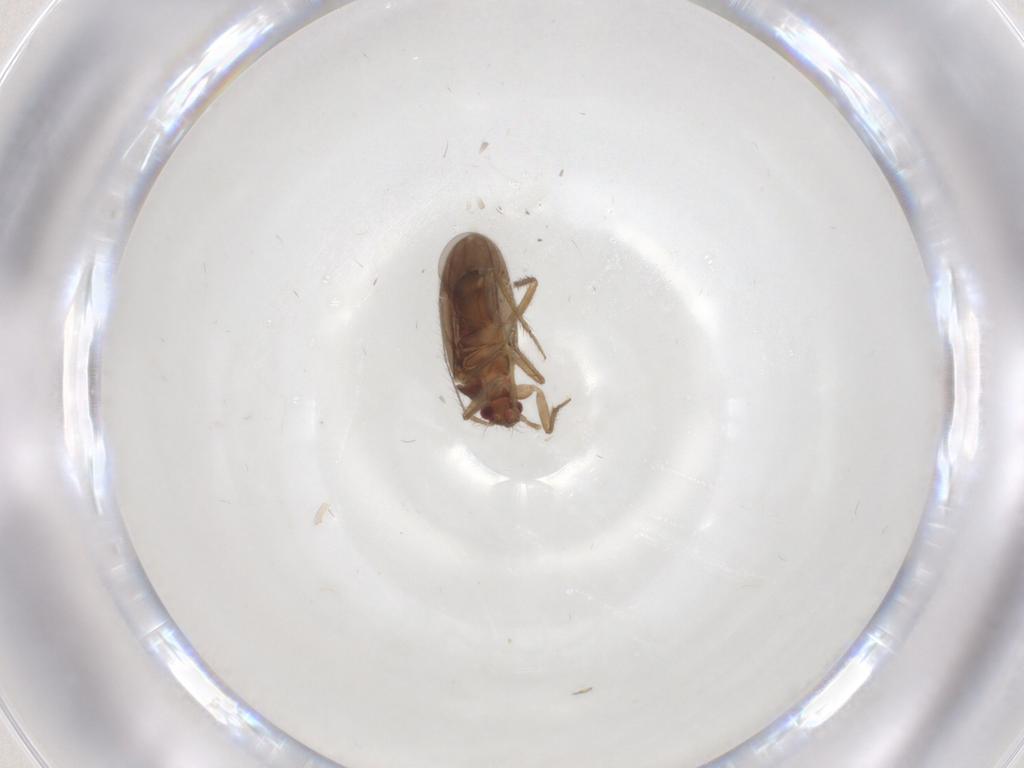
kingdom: Animalia
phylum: Arthropoda
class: Insecta
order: Hemiptera
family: Ceratocombidae
